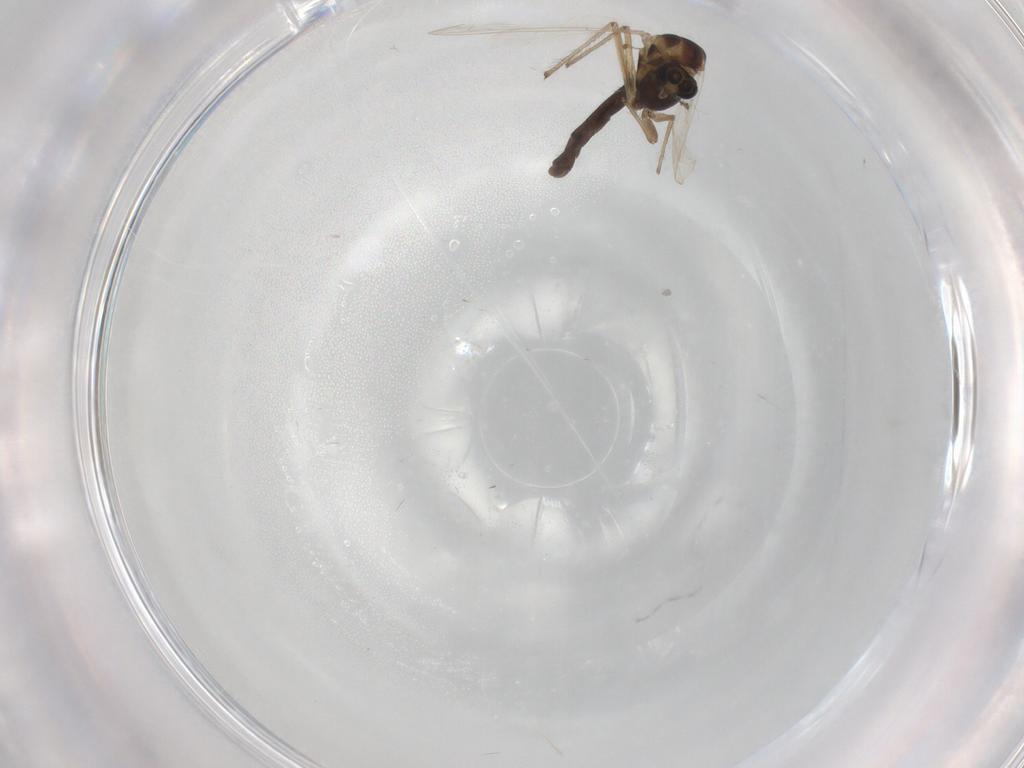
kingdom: Animalia
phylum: Arthropoda
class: Insecta
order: Diptera
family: Chironomidae
